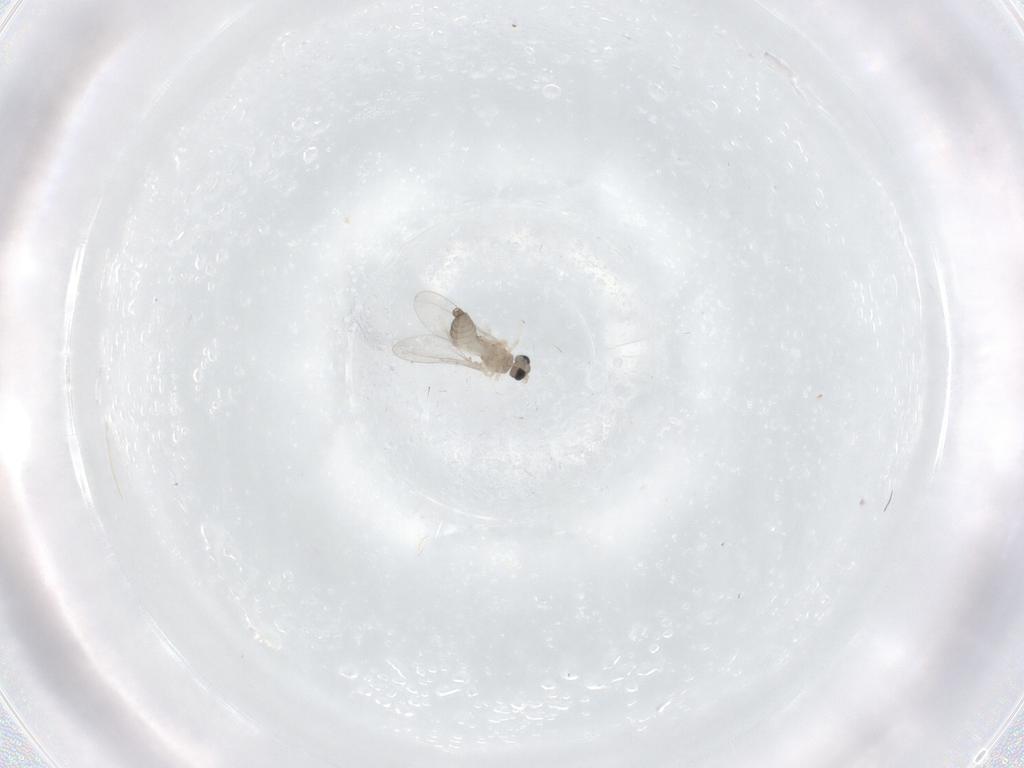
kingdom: Animalia
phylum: Arthropoda
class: Insecta
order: Diptera
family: Cecidomyiidae
